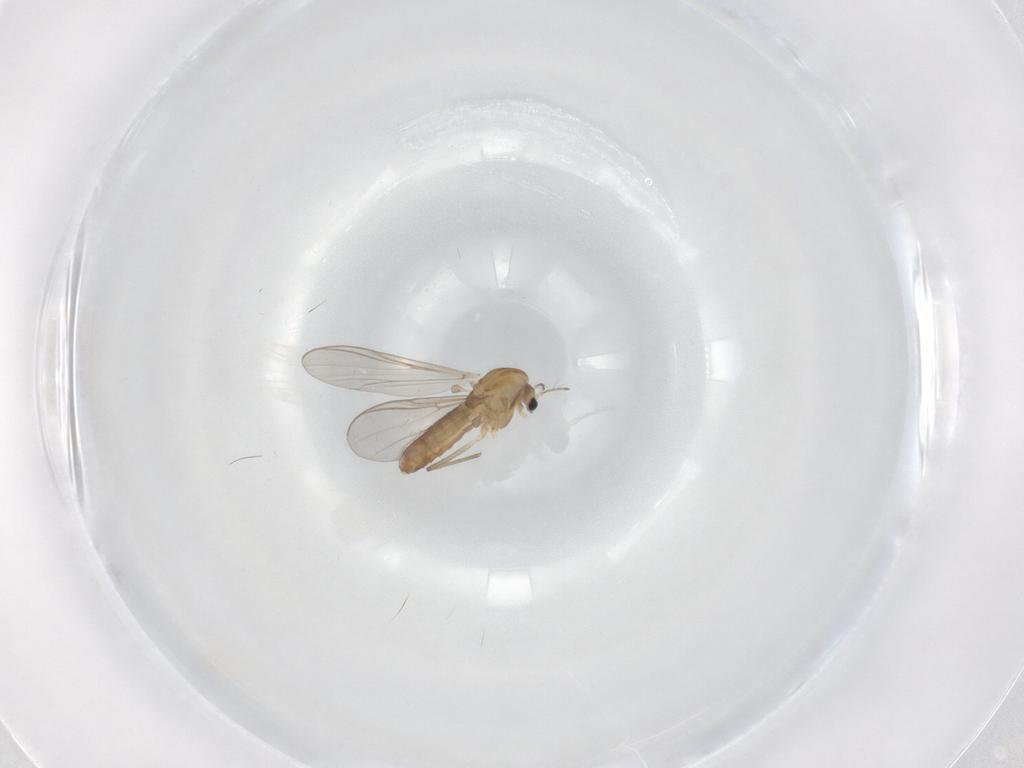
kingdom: Animalia
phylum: Arthropoda
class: Insecta
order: Diptera
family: Chironomidae
